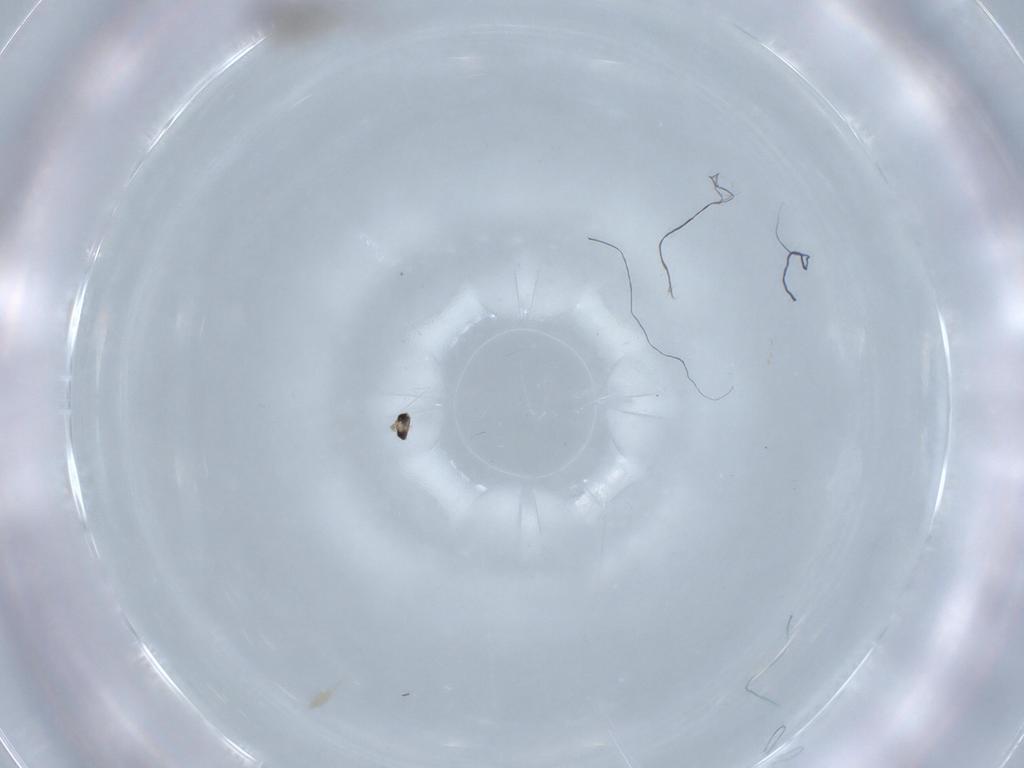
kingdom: Animalia
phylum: Arthropoda
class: Insecta
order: Diptera
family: Cecidomyiidae
